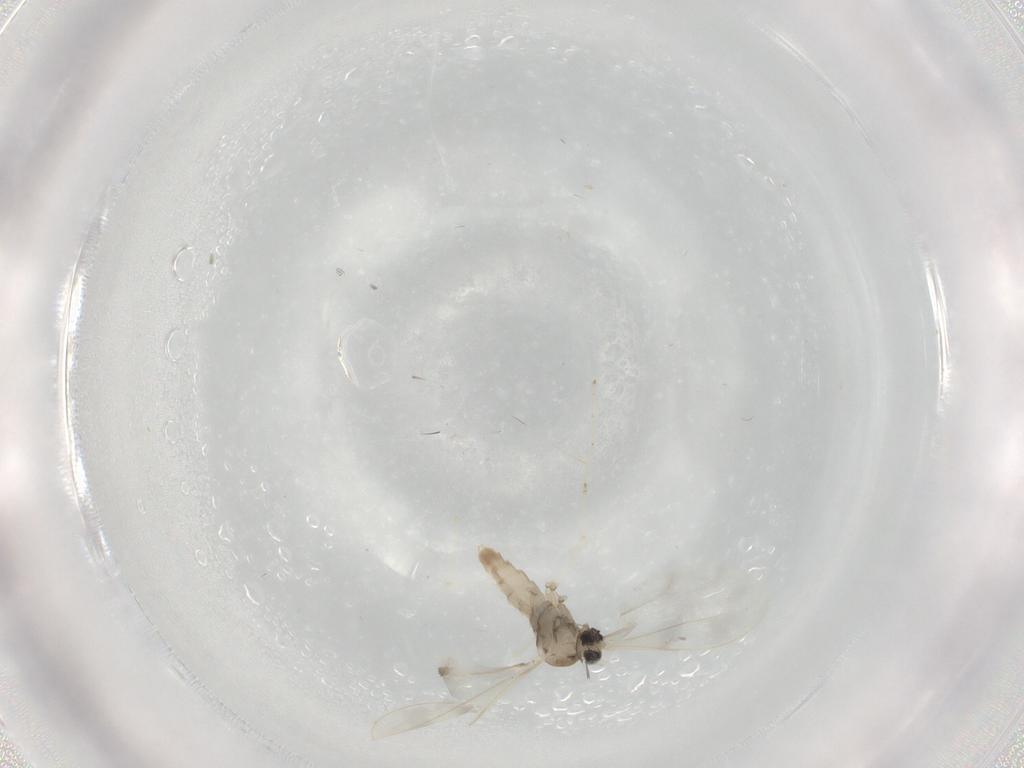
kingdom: Animalia
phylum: Arthropoda
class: Insecta
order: Diptera
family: Cecidomyiidae
